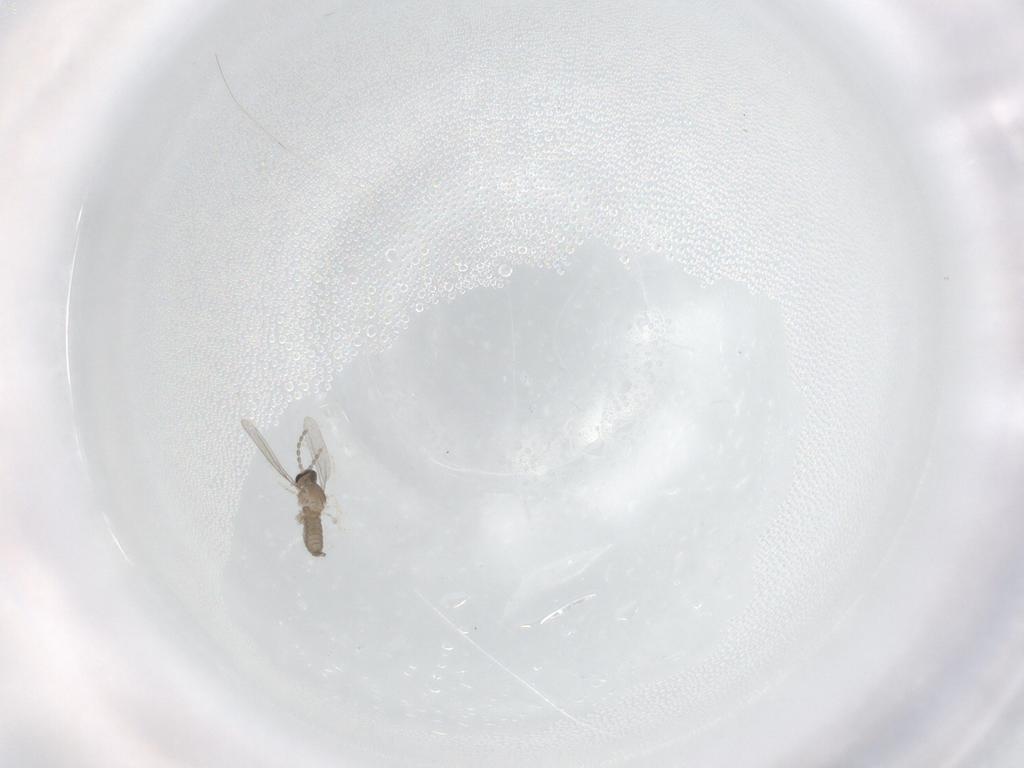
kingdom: Animalia
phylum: Arthropoda
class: Insecta
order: Diptera
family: Cecidomyiidae
